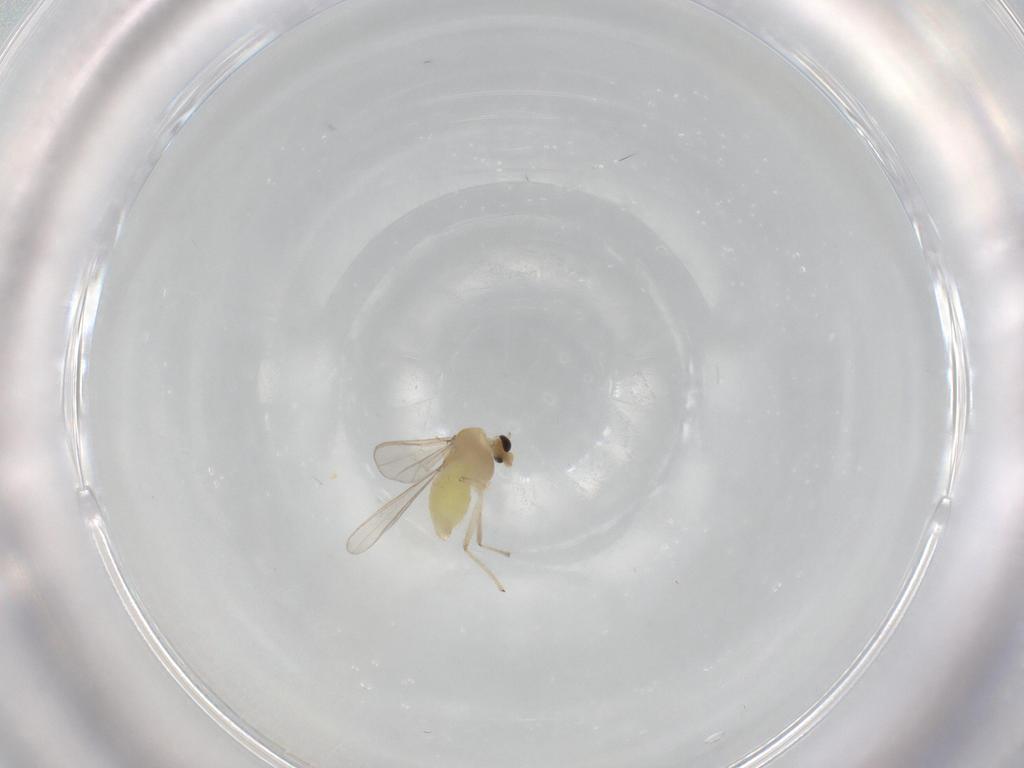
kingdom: Animalia
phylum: Arthropoda
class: Insecta
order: Diptera
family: Chironomidae
